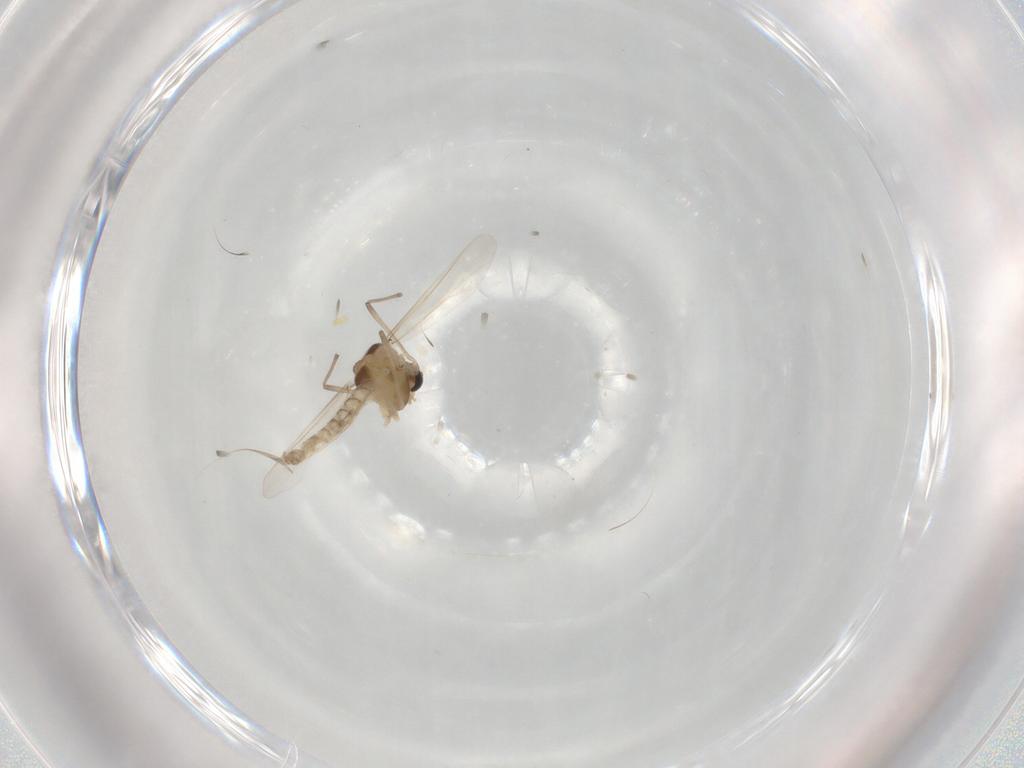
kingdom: Animalia
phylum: Arthropoda
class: Insecta
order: Diptera
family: Chironomidae
